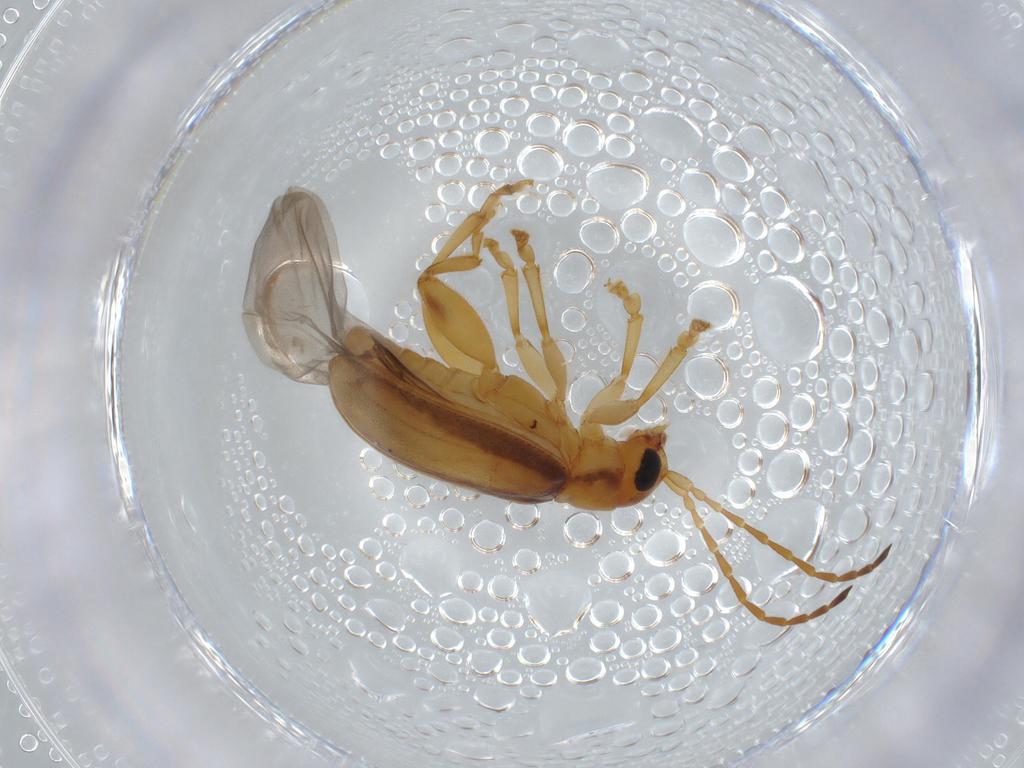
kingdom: Animalia
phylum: Arthropoda
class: Insecta
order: Coleoptera
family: Chrysomelidae
